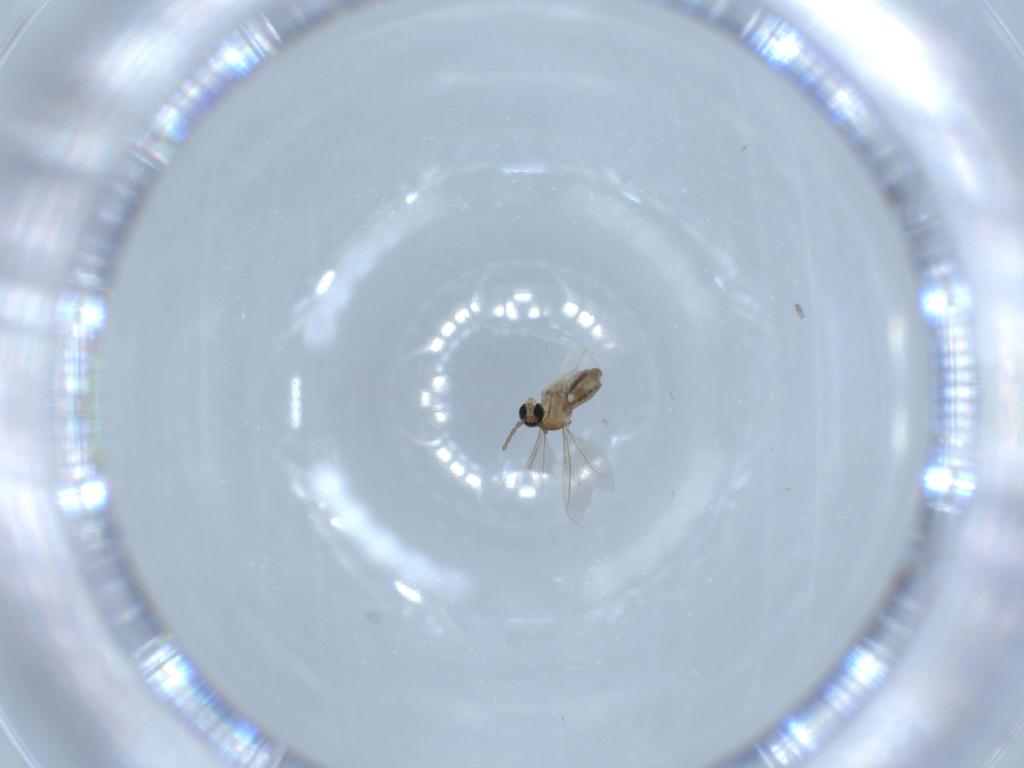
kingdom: Animalia
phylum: Arthropoda
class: Insecta
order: Diptera
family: Cecidomyiidae
